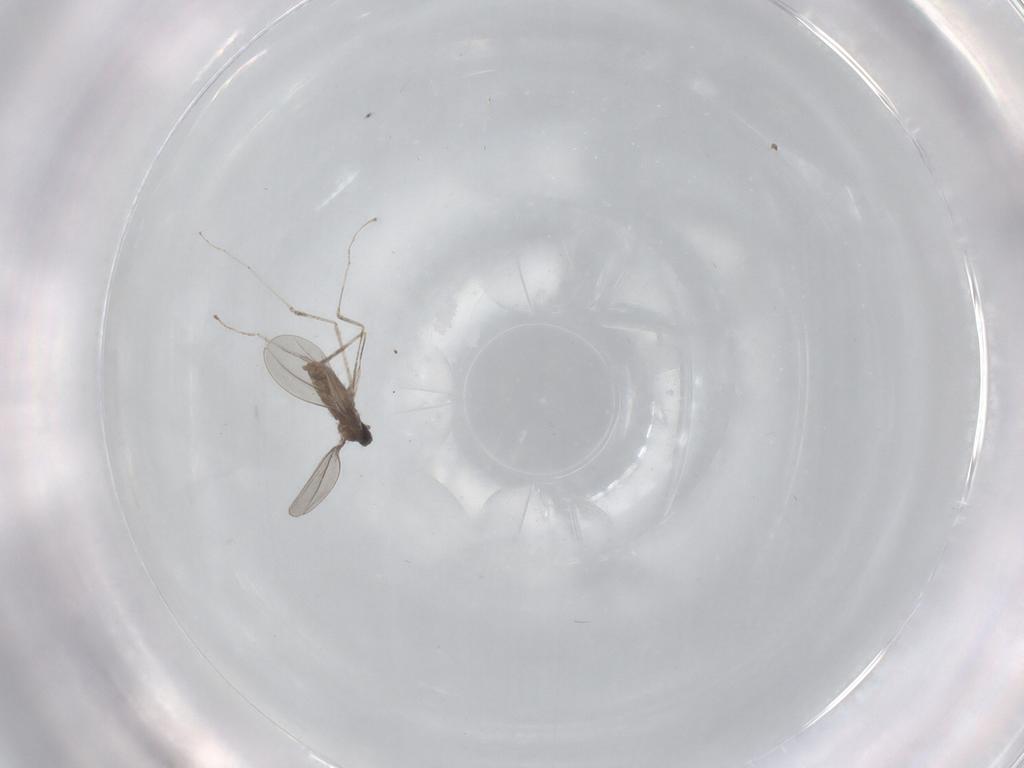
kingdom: Animalia
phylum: Arthropoda
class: Insecta
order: Diptera
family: Cecidomyiidae
